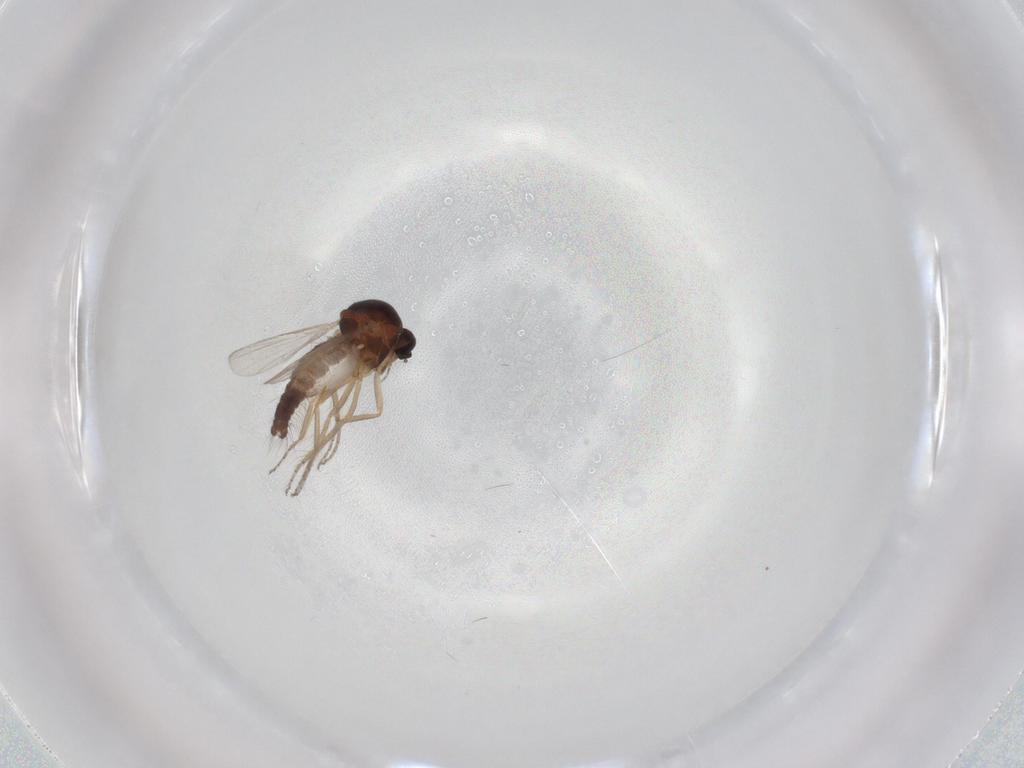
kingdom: Animalia
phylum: Arthropoda
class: Insecta
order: Diptera
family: Ceratopogonidae
